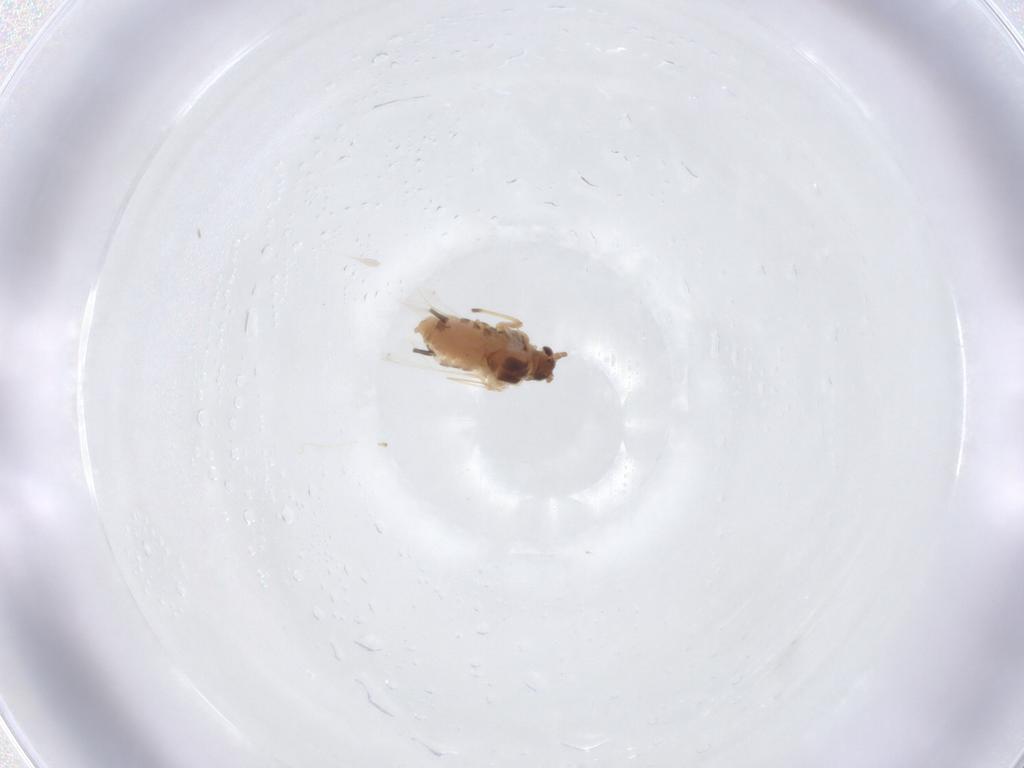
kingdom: Animalia
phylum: Arthropoda
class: Insecta
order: Hemiptera
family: Aphididae
